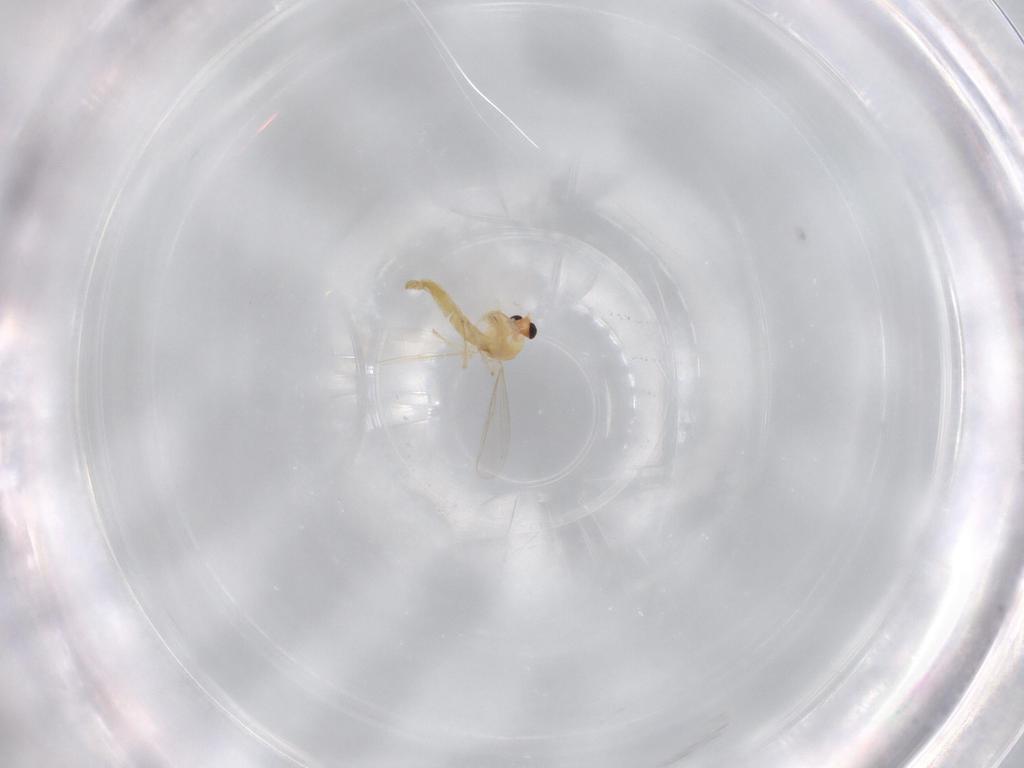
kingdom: Animalia
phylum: Arthropoda
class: Insecta
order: Diptera
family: Chironomidae
